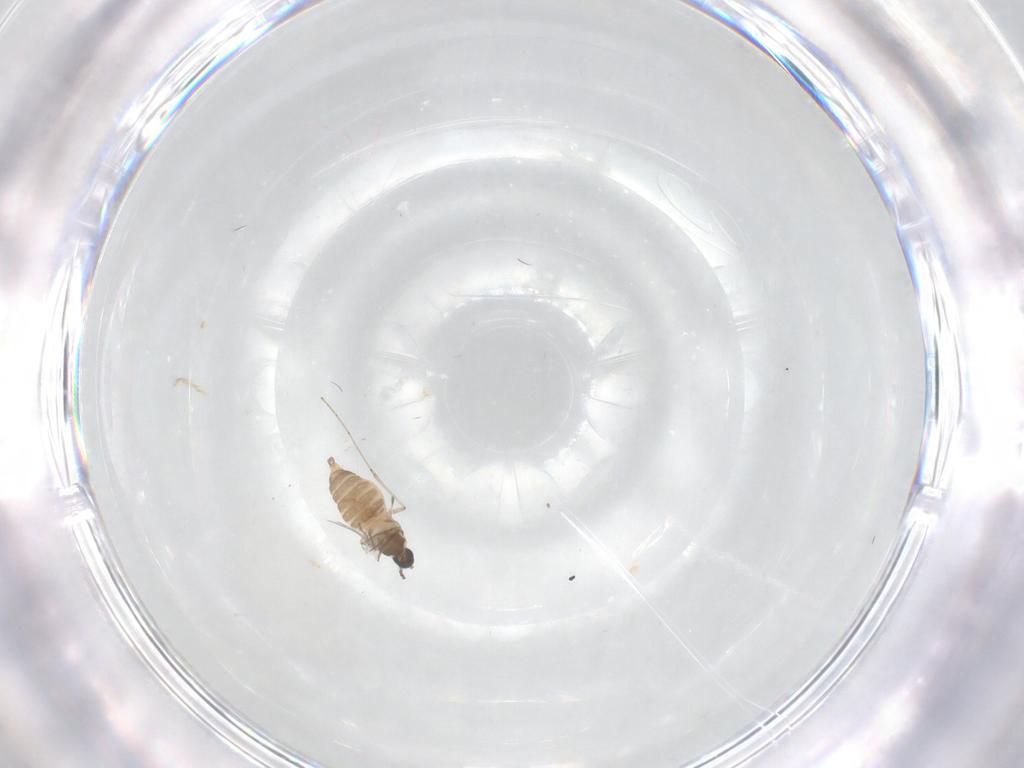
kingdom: Animalia
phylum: Arthropoda
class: Insecta
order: Diptera
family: Cecidomyiidae
